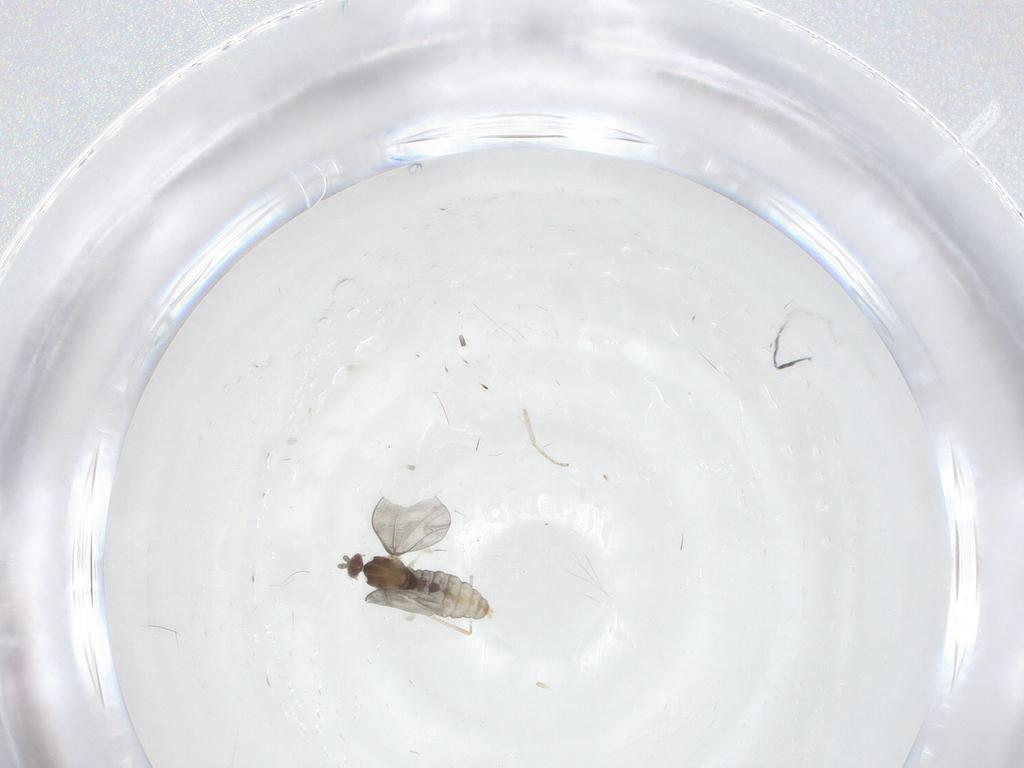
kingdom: Animalia
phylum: Arthropoda
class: Insecta
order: Diptera
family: Cecidomyiidae
